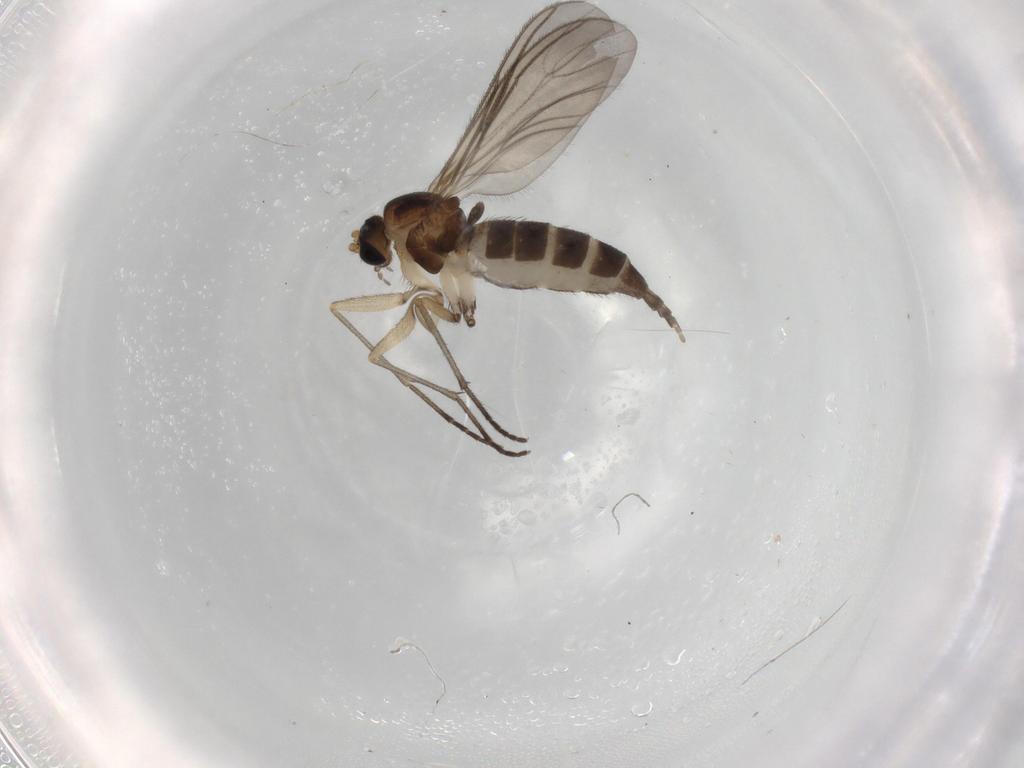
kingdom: Animalia
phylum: Arthropoda
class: Insecta
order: Diptera
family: Sciaridae
